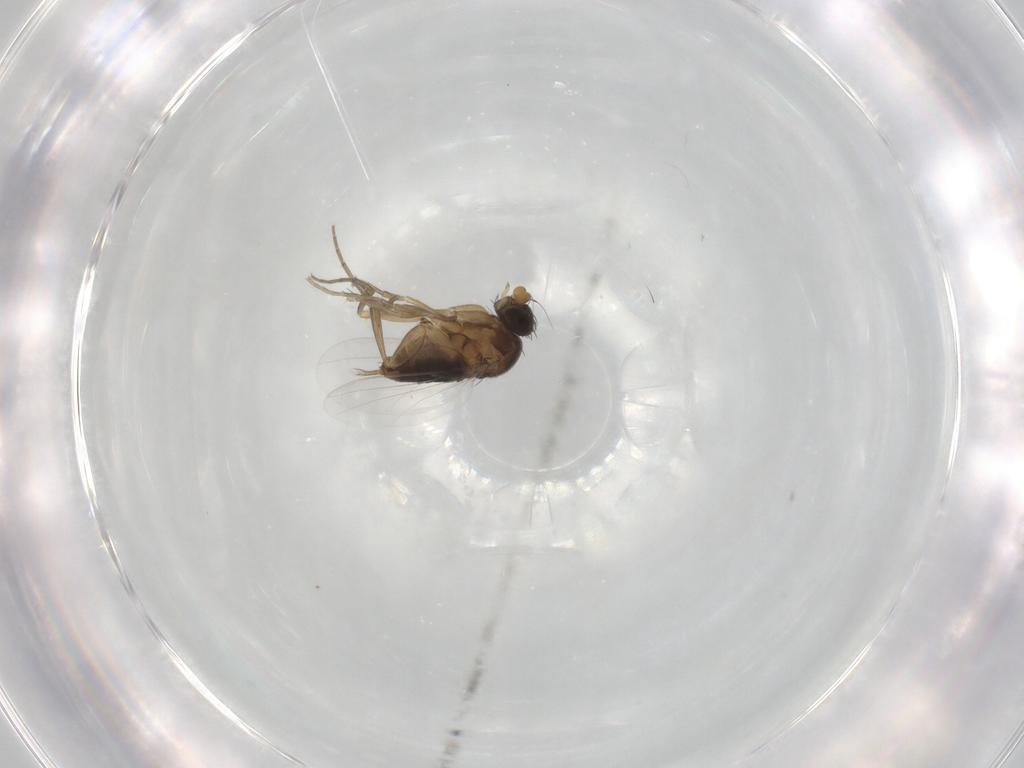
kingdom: Animalia
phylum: Arthropoda
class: Insecta
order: Diptera
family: Phoridae
